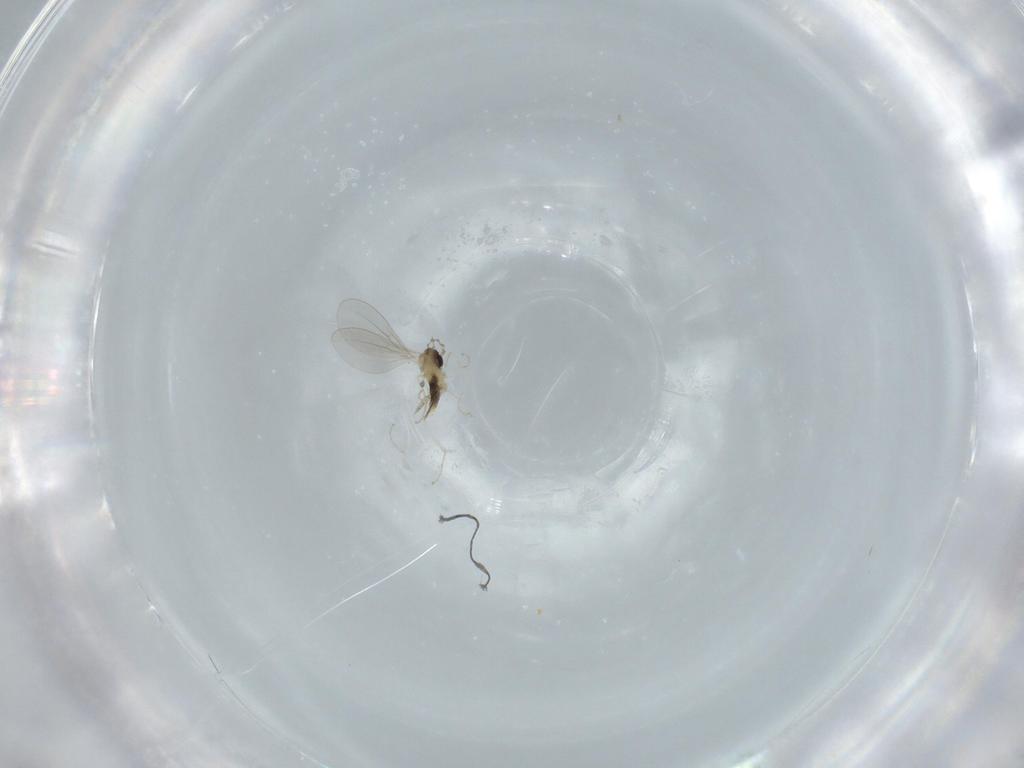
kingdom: Animalia
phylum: Arthropoda
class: Insecta
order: Diptera
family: Cecidomyiidae
